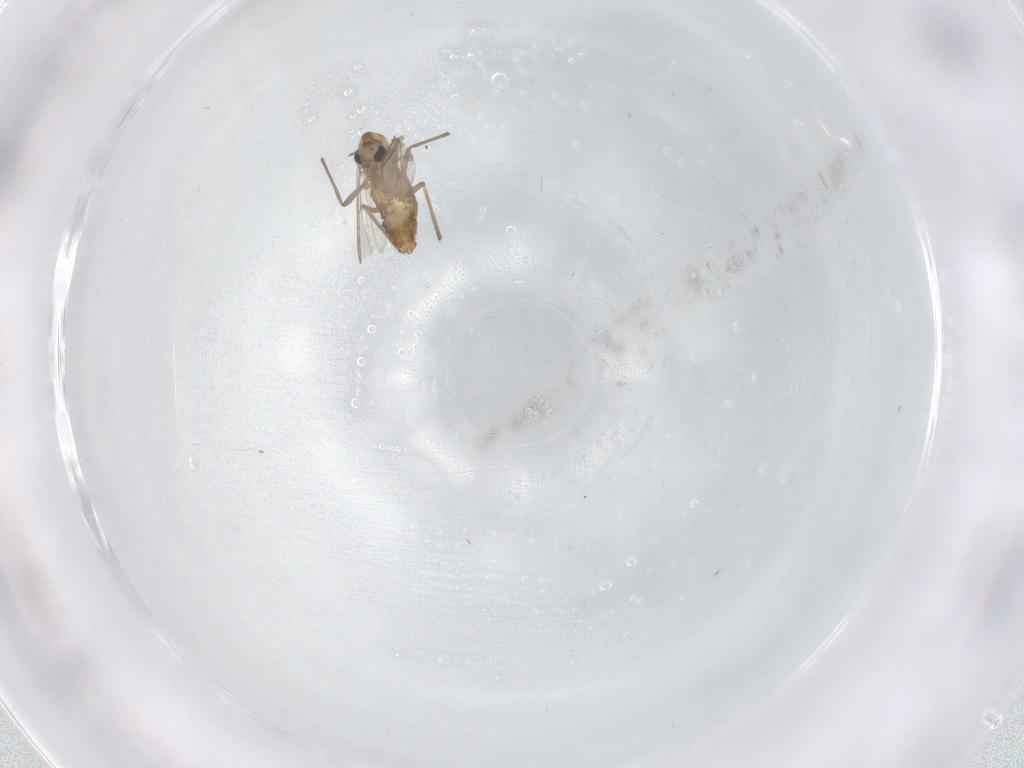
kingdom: Animalia
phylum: Arthropoda
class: Insecta
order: Diptera
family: Chironomidae
